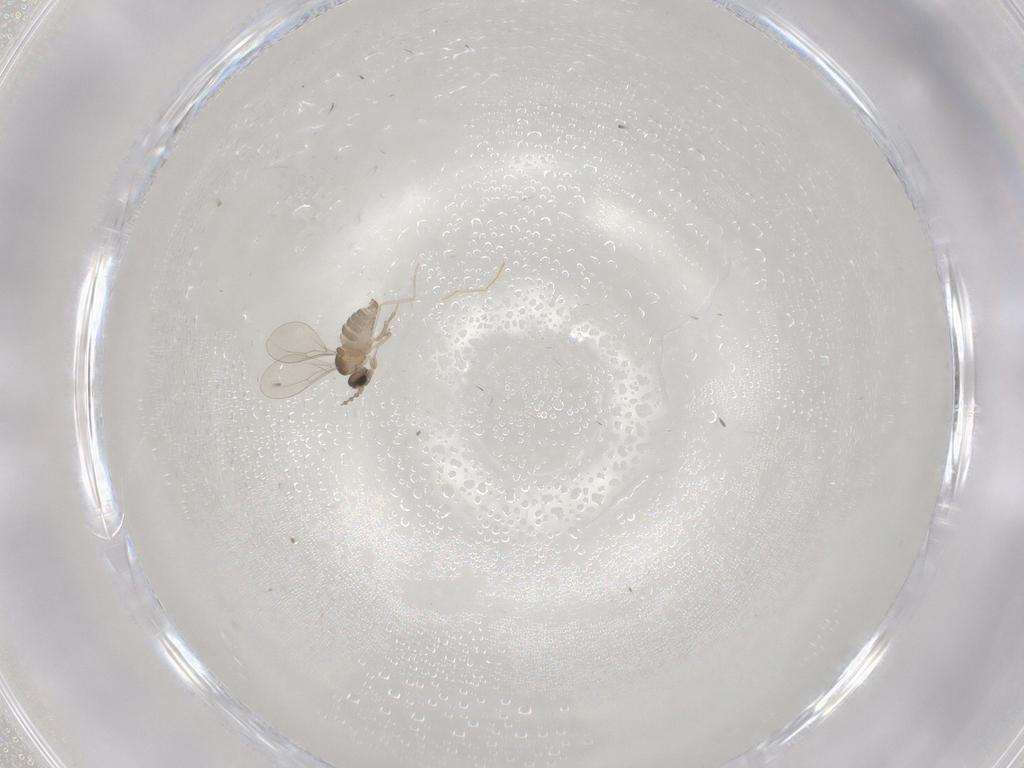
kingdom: Animalia
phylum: Arthropoda
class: Insecta
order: Diptera
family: Cecidomyiidae
